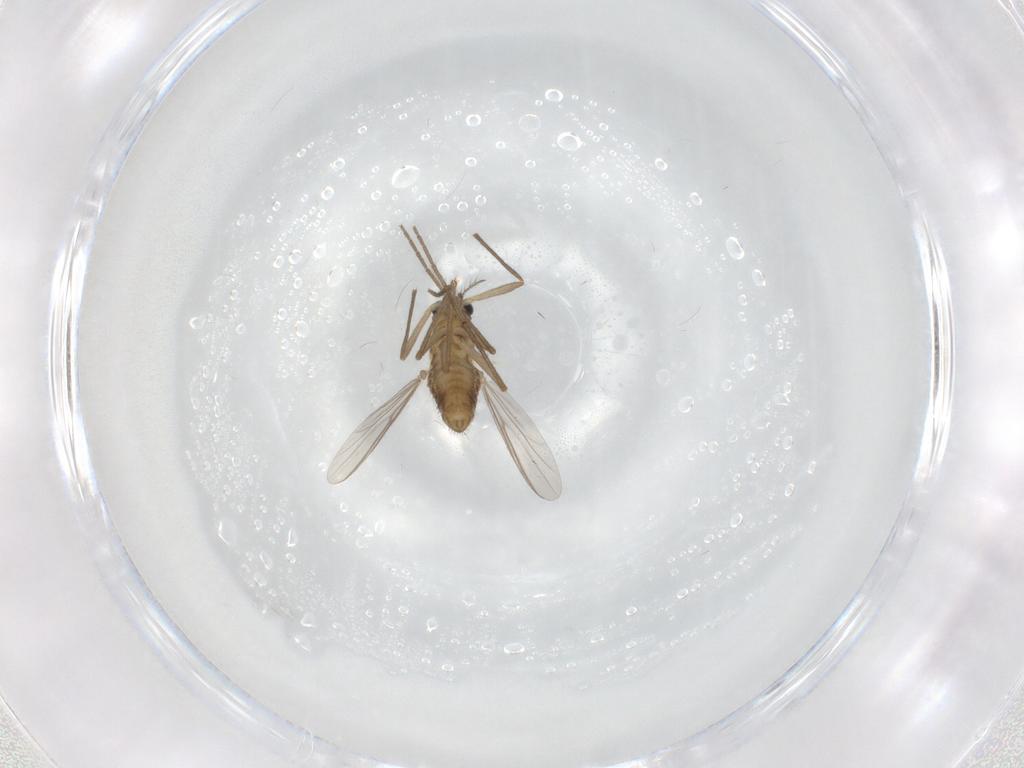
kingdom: Animalia
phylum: Arthropoda
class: Insecta
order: Diptera
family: Chironomidae
